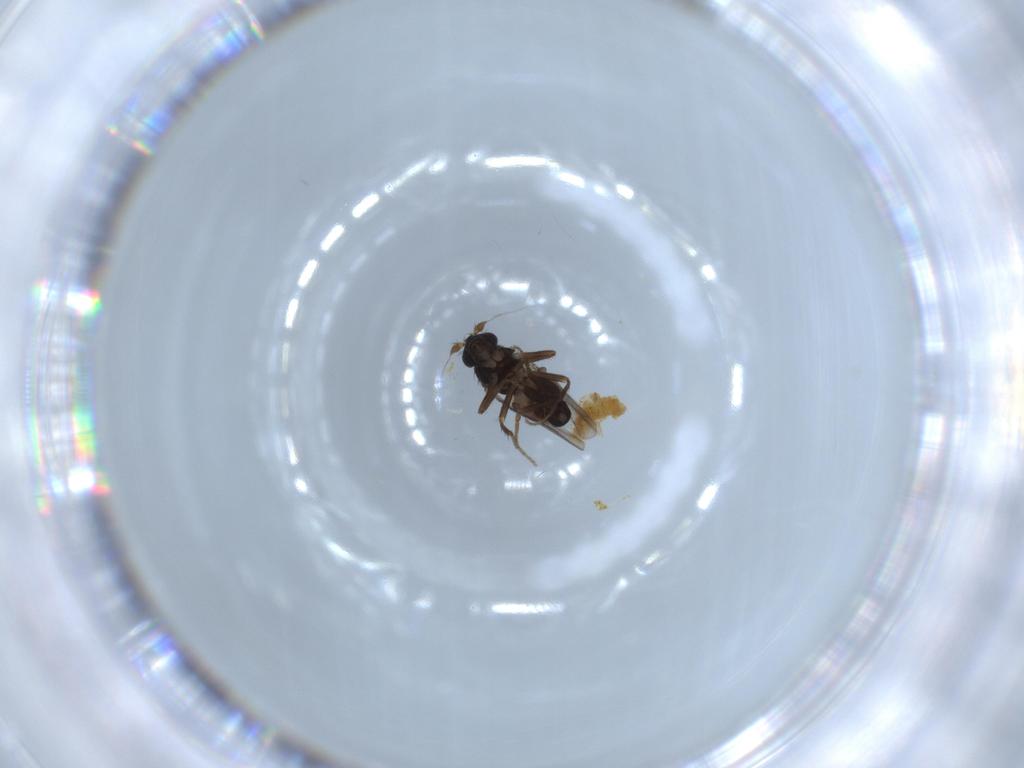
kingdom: Animalia
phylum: Arthropoda
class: Insecta
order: Diptera
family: Sphaeroceridae
